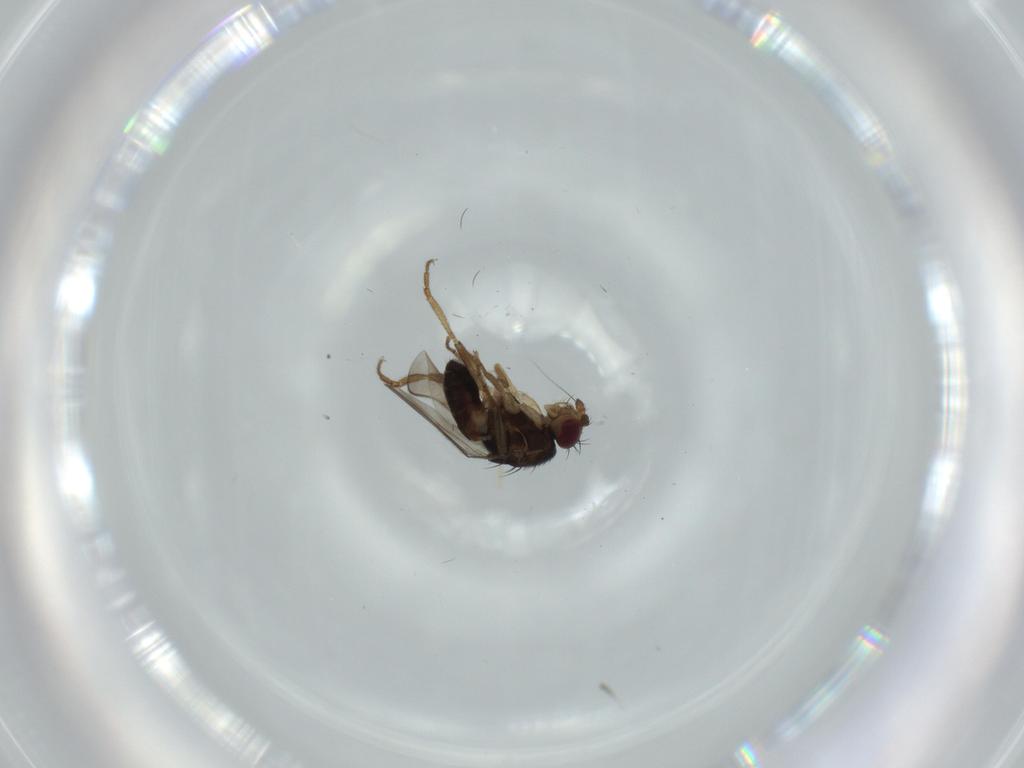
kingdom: Animalia
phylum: Arthropoda
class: Insecta
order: Diptera
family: Sphaeroceridae
